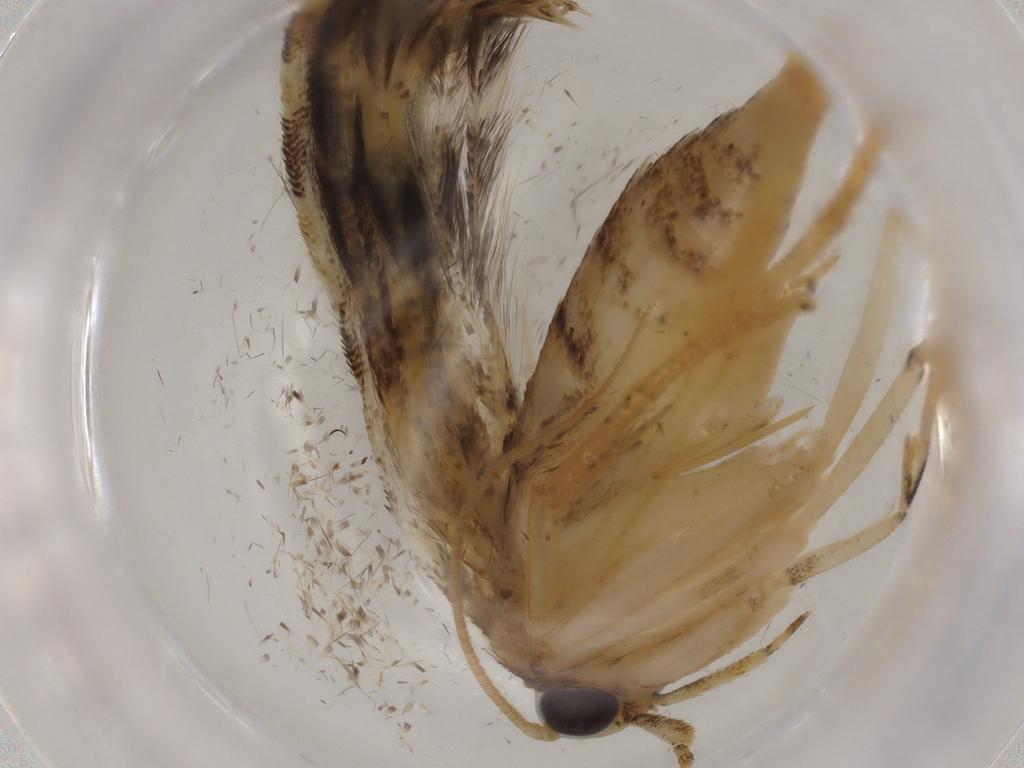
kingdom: Animalia
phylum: Arthropoda
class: Insecta
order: Lepidoptera
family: Gelechiidae
